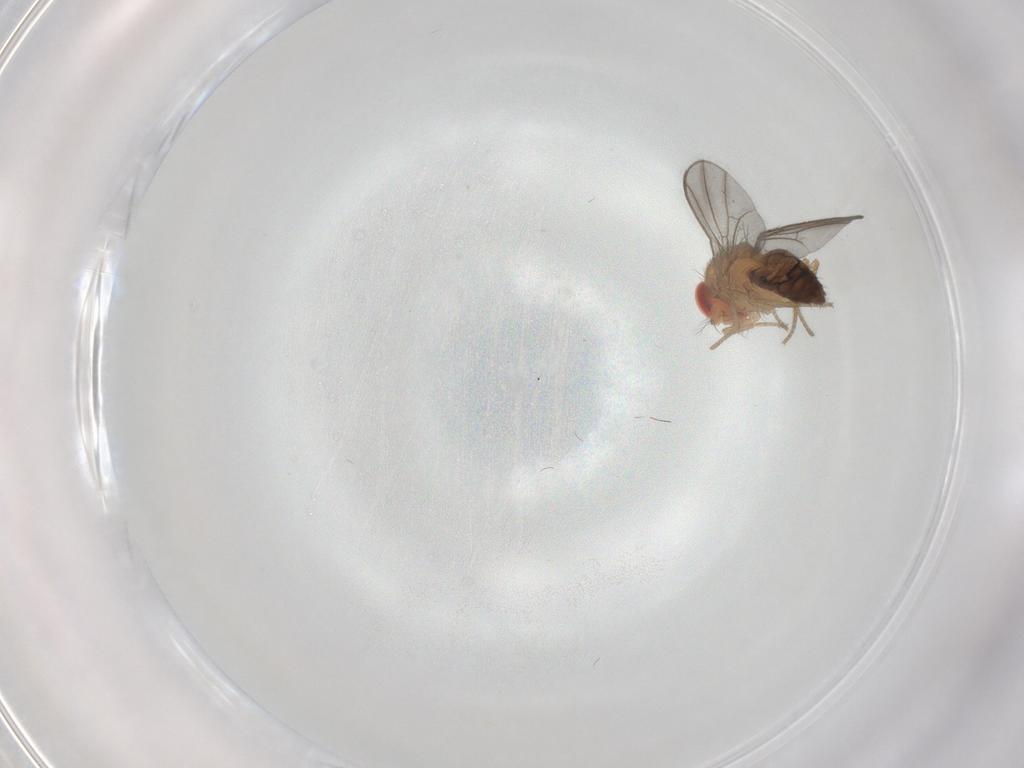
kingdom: Animalia
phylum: Arthropoda
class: Insecta
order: Diptera
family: Drosophilidae
